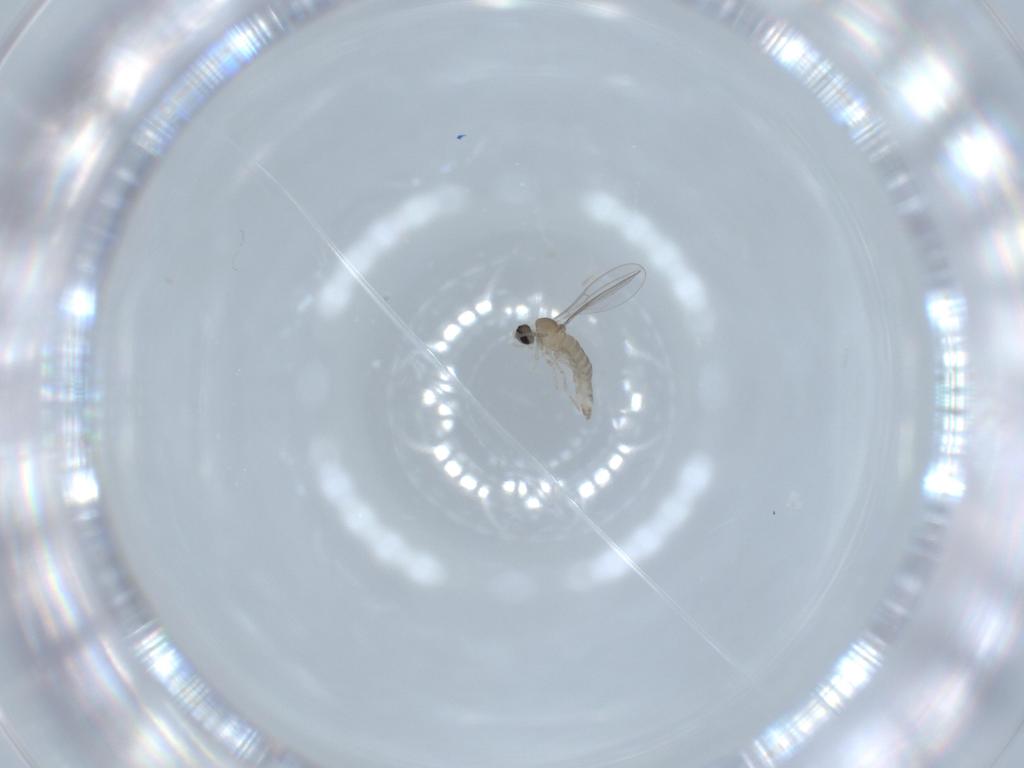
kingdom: Animalia
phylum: Arthropoda
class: Insecta
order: Diptera
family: Cecidomyiidae
